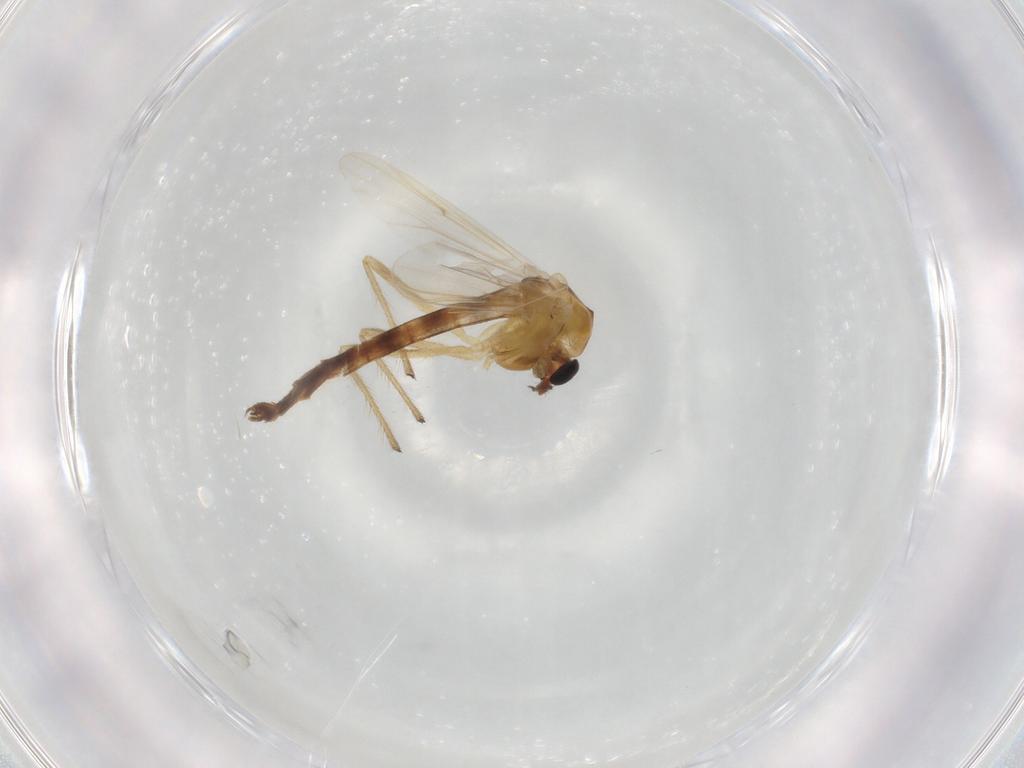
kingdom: Animalia
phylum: Arthropoda
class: Insecta
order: Diptera
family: Chironomidae
